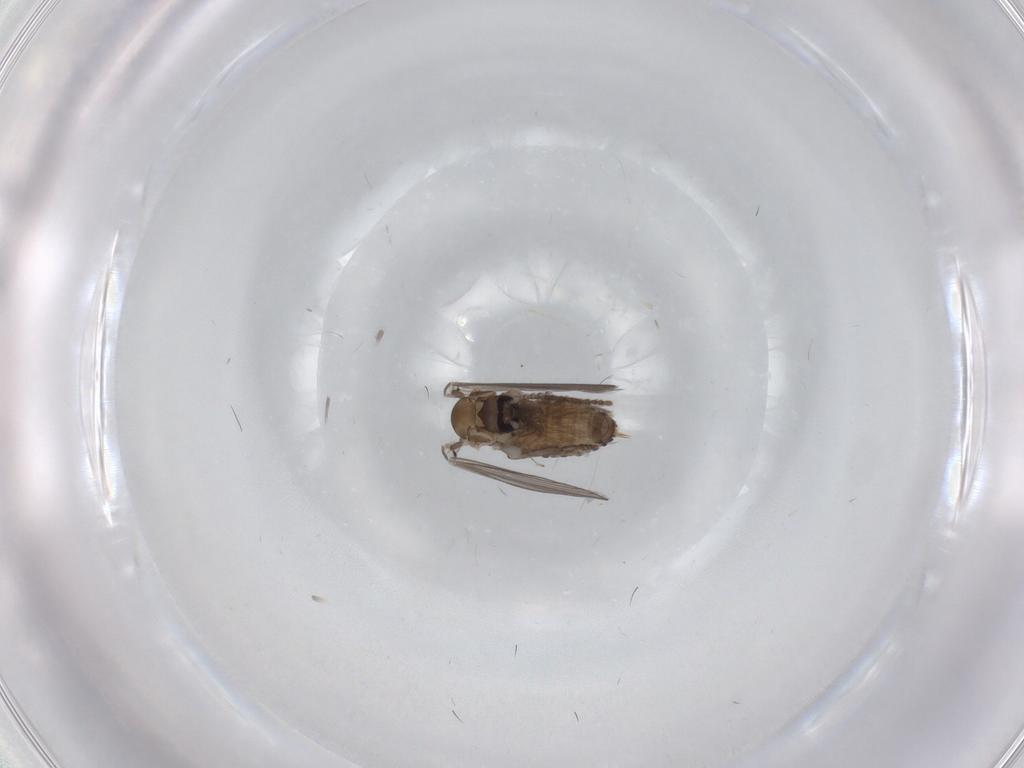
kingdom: Animalia
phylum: Arthropoda
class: Insecta
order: Diptera
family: Psychodidae
